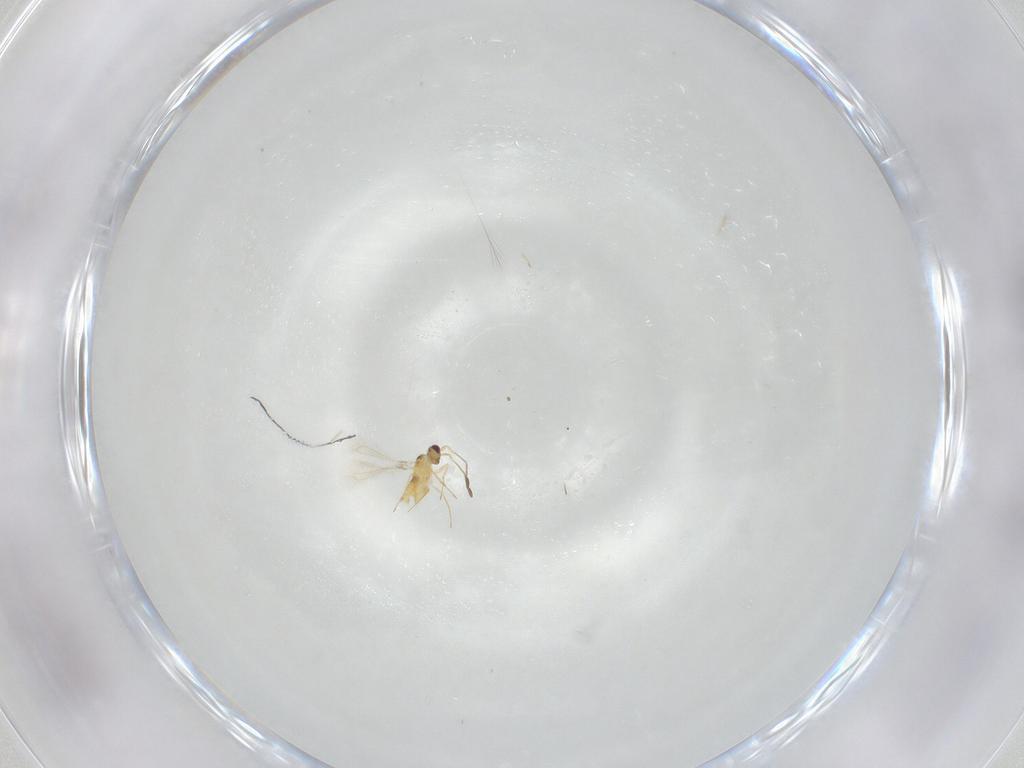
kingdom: Animalia
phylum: Arthropoda
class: Insecta
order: Hymenoptera
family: Mymaridae
